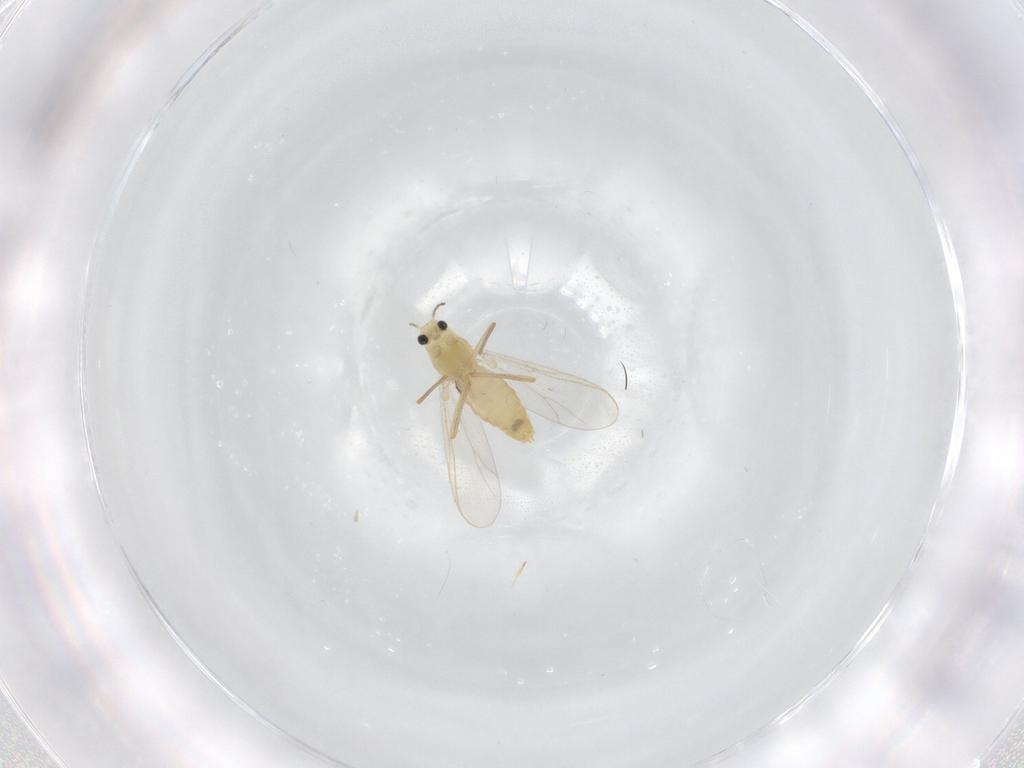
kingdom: Animalia
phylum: Arthropoda
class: Insecta
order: Diptera
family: Chironomidae
